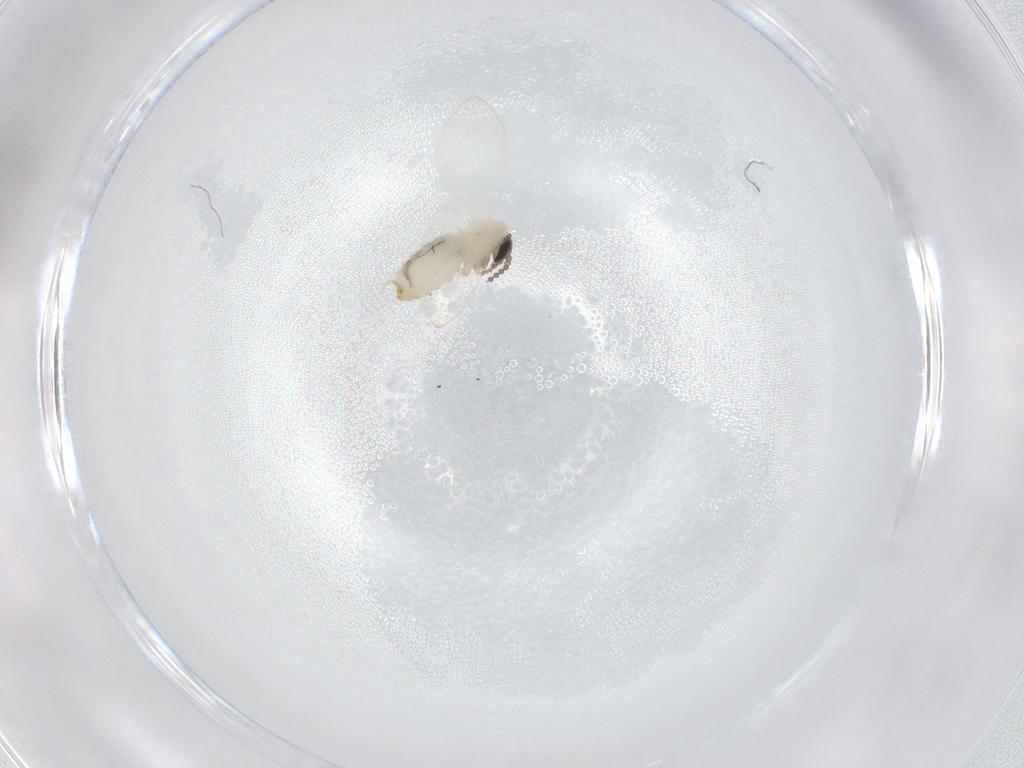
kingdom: Animalia
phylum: Arthropoda
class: Insecta
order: Diptera
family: Psychodidae
